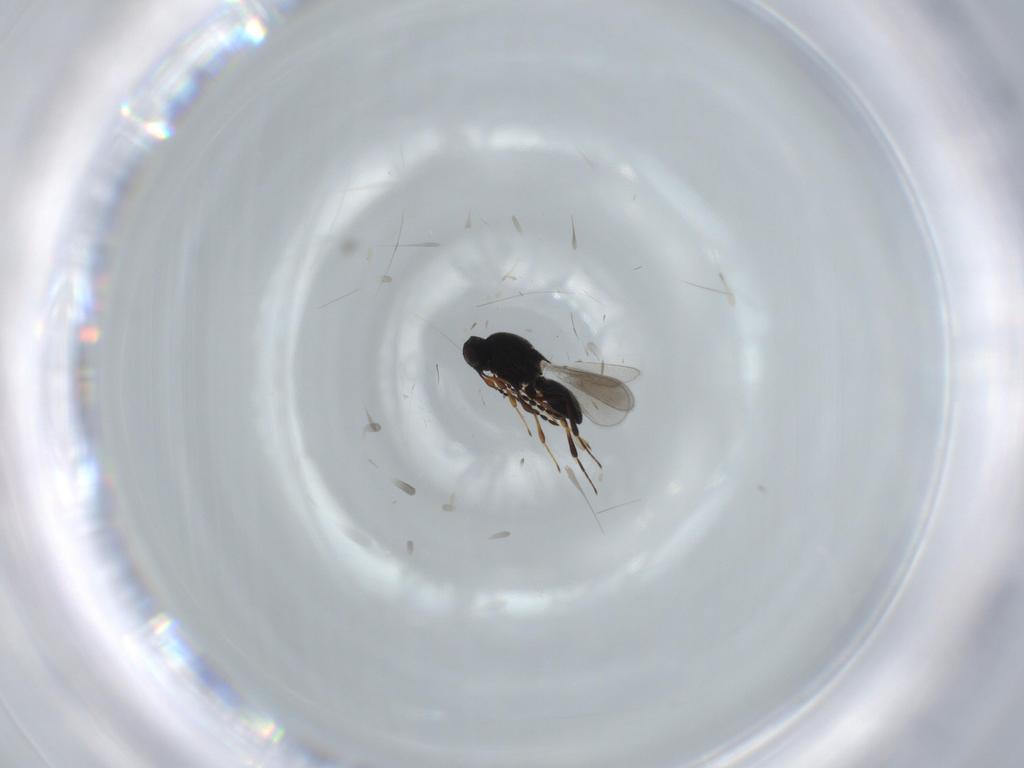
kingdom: Animalia
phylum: Arthropoda
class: Insecta
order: Hymenoptera
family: Platygastridae
